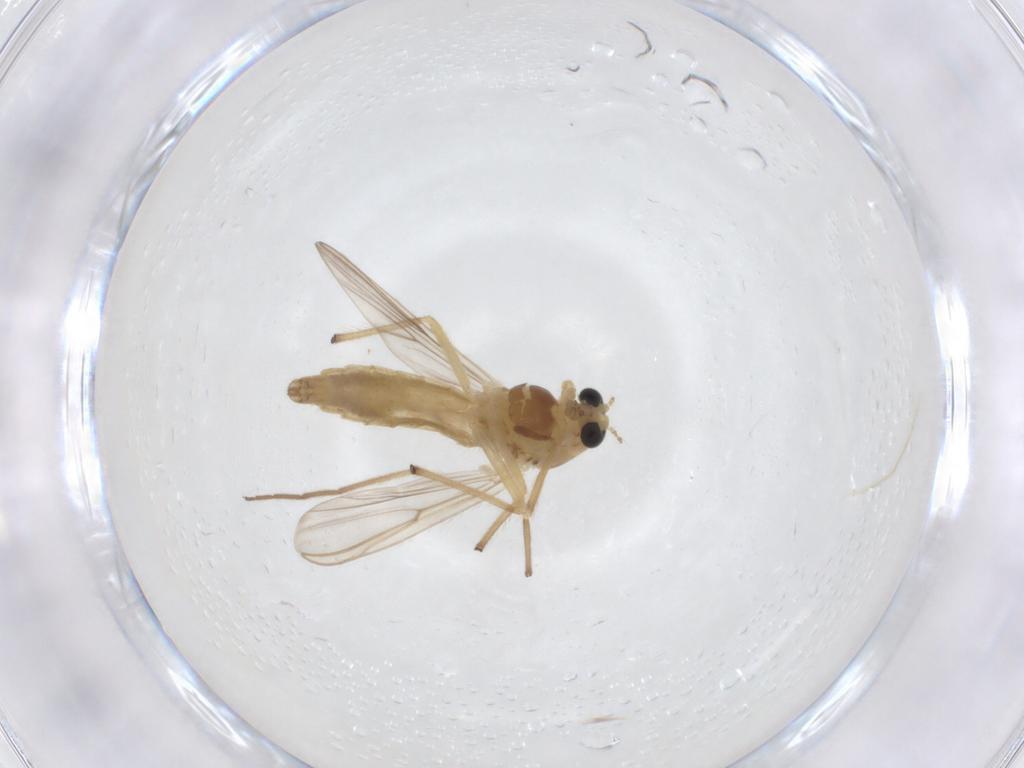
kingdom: Animalia
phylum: Arthropoda
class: Insecta
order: Diptera
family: Chironomidae
